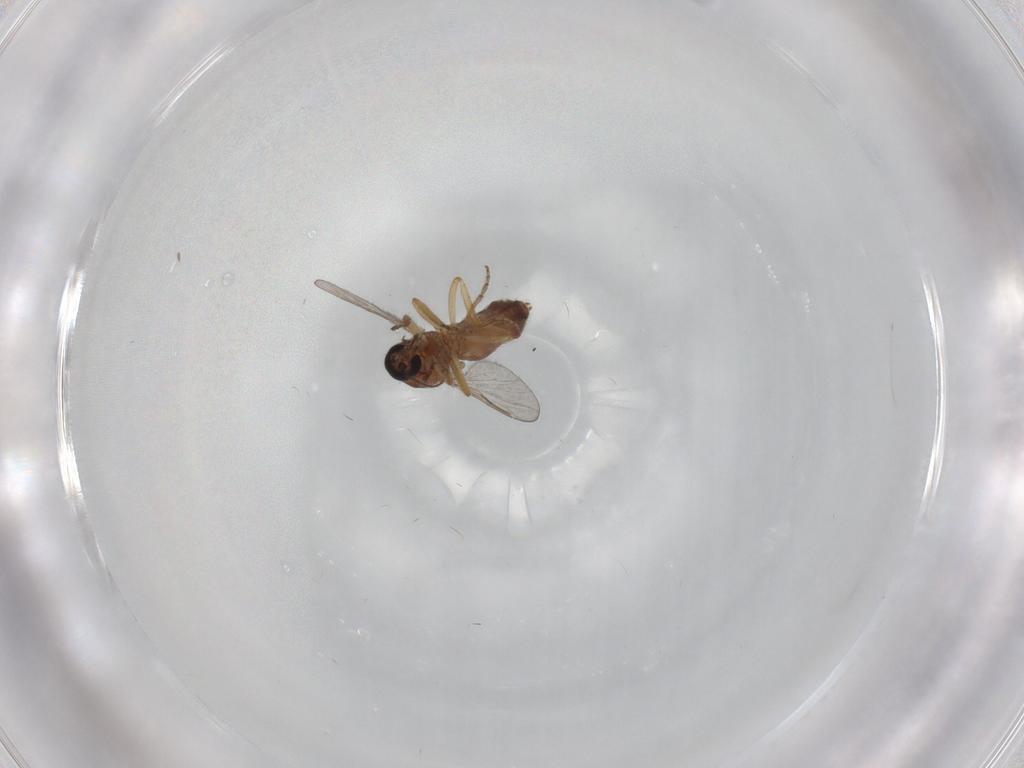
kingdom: Animalia
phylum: Arthropoda
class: Insecta
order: Diptera
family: Ceratopogonidae
